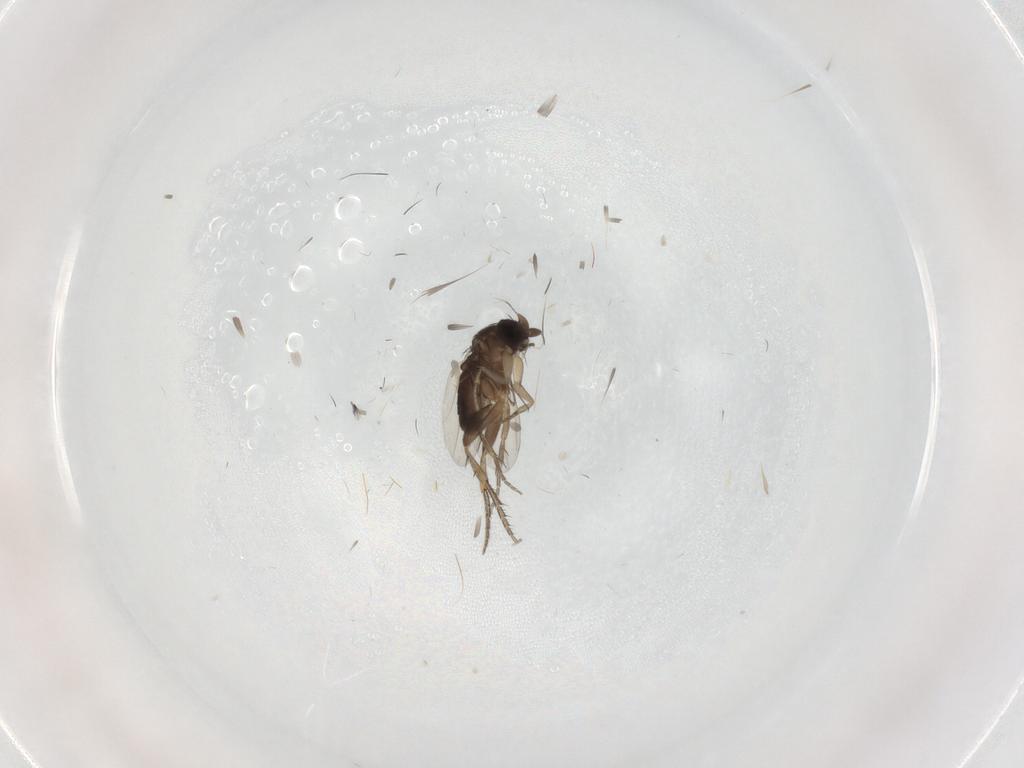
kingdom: Animalia
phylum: Arthropoda
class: Insecta
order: Diptera
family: Phoridae
